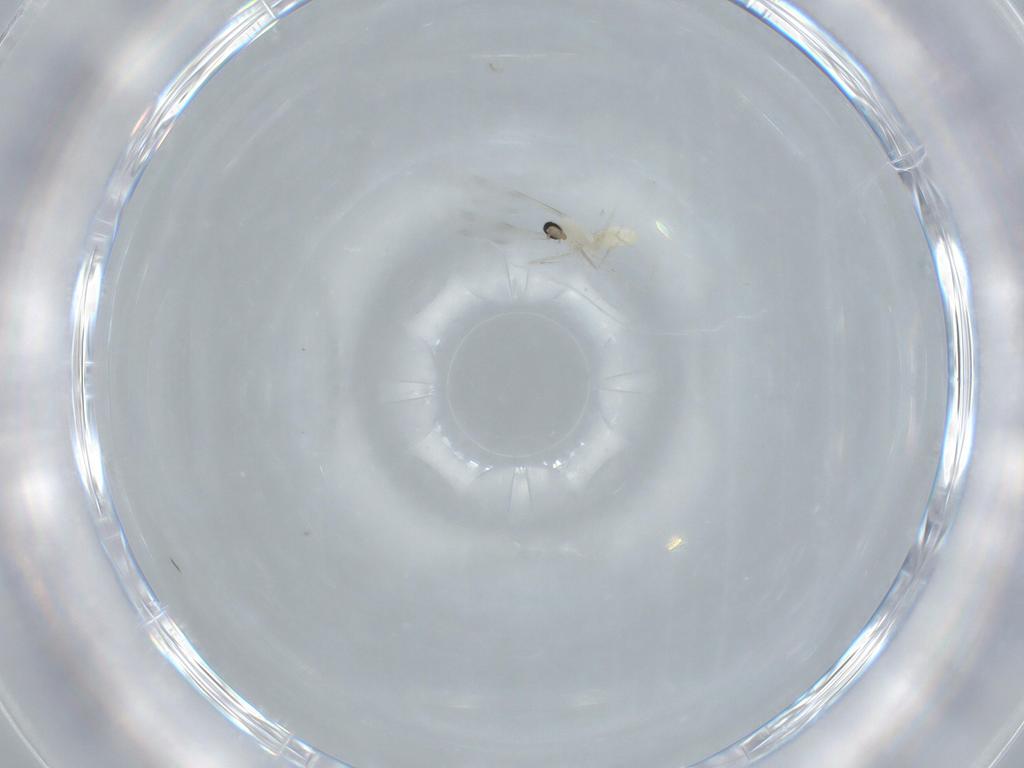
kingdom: Animalia
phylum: Arthropoda
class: Insecta
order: Diptera
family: Cecidomyiidae
